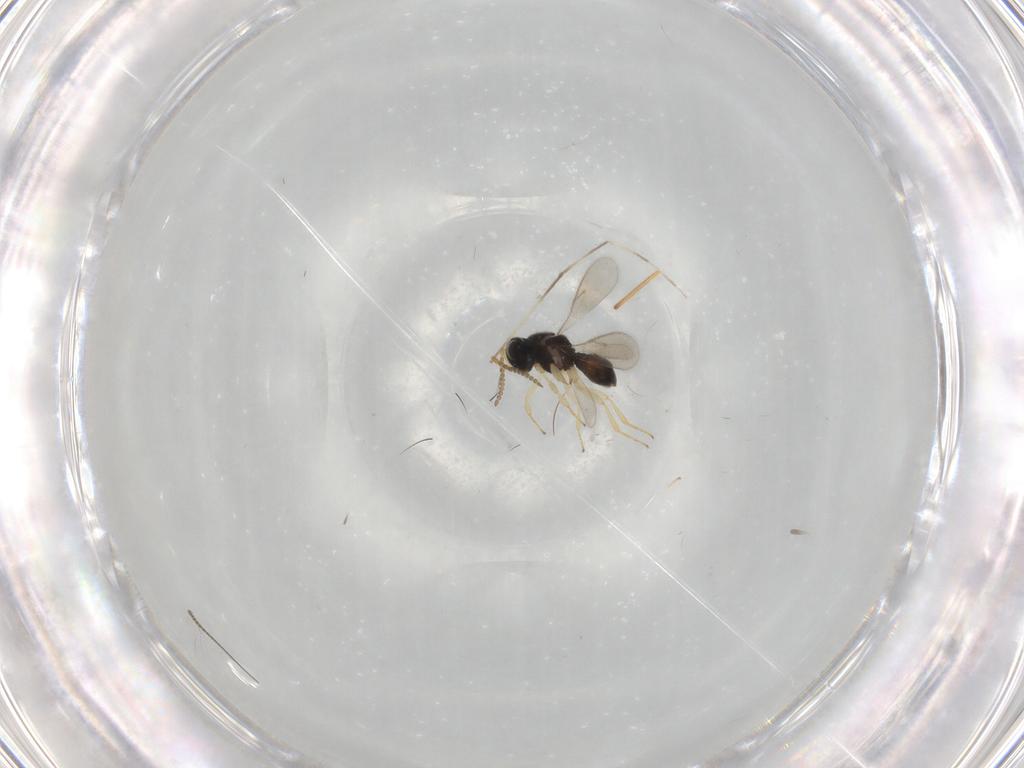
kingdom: Animalia
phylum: Arthropoda
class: Insecta
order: Hymenoptera
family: Scelionidae
